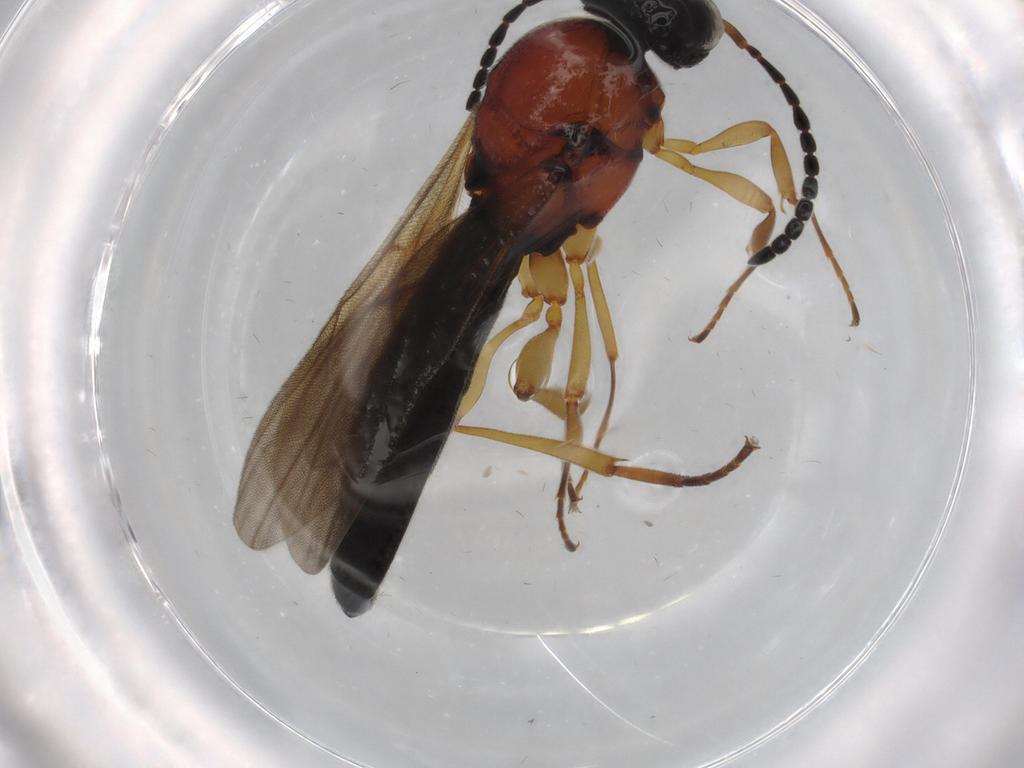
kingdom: Animalia
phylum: Arthropoda
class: Insecta
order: Hymenoptera
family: Scelionidae
